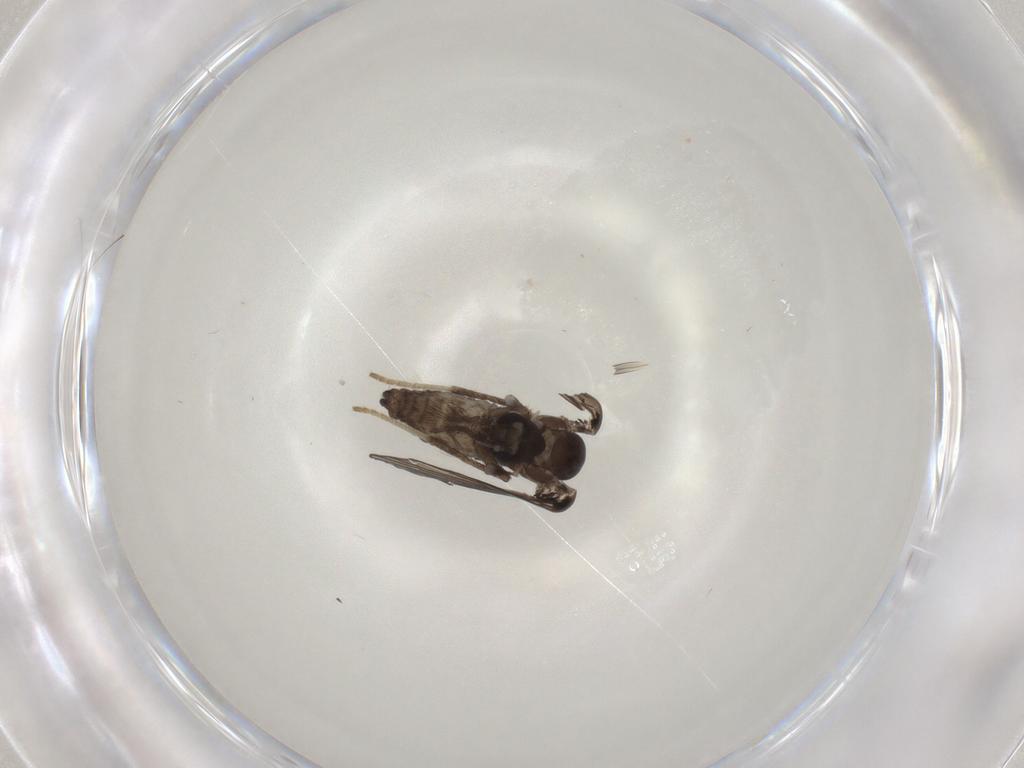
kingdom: Animalia
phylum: Arthropoda
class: Insecta
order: Diptera
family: Psychodidae
